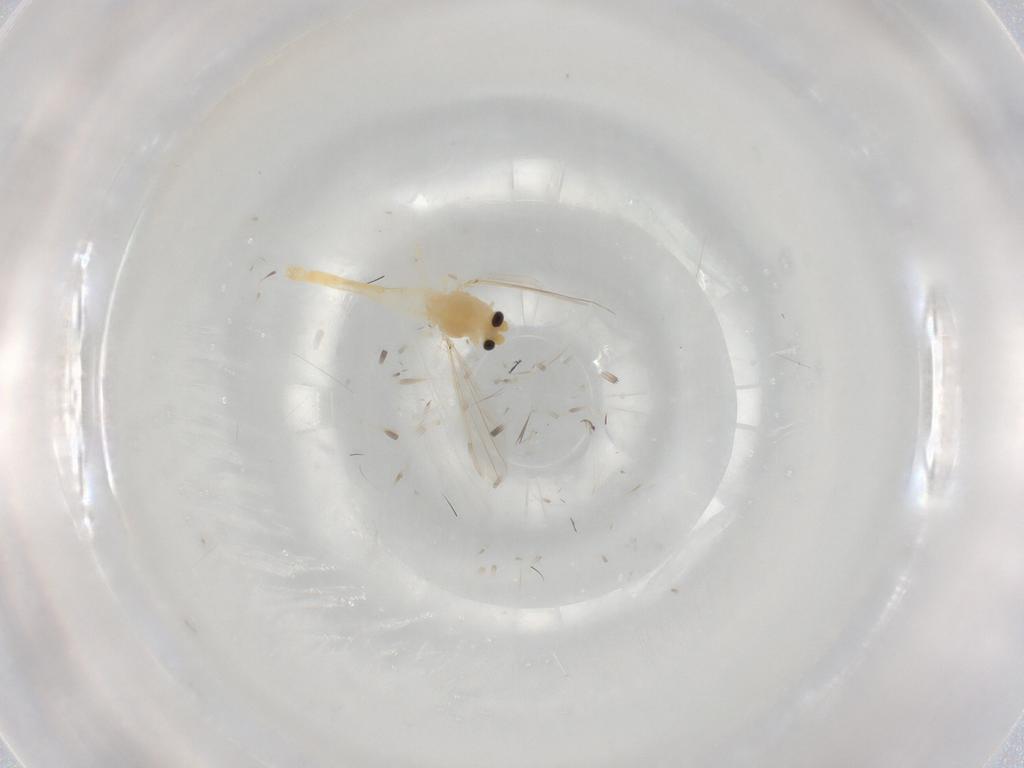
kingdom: Animalia
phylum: Arthropoda
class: Insecta
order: Diptera
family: Chironomidae
